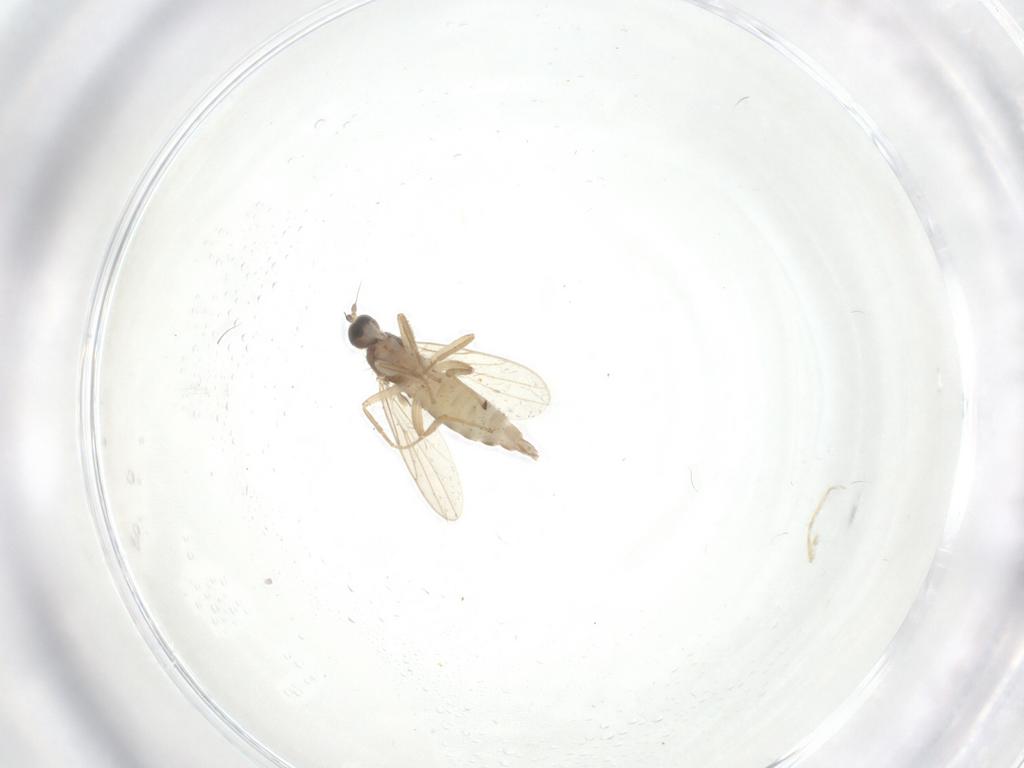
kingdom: Animalia
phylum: Arthropoda
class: Insecta
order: Diptera
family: Hybotidae
